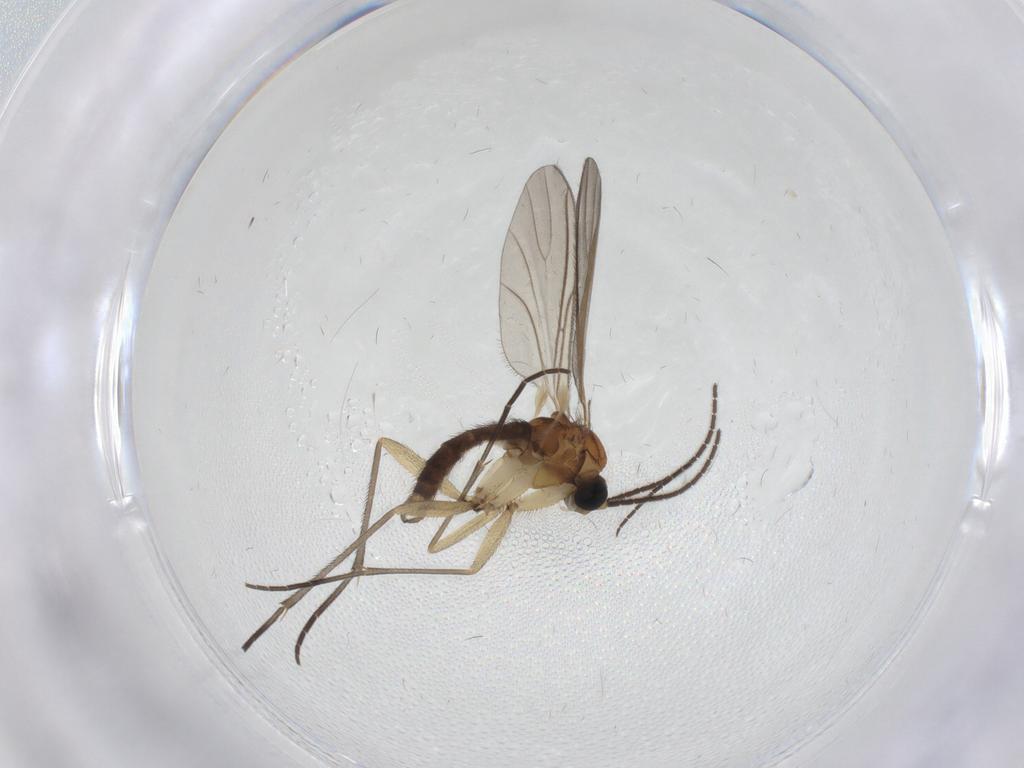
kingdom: Animalia
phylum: Arthropoda
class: Insecta
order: Diptera
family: Sciaridae
